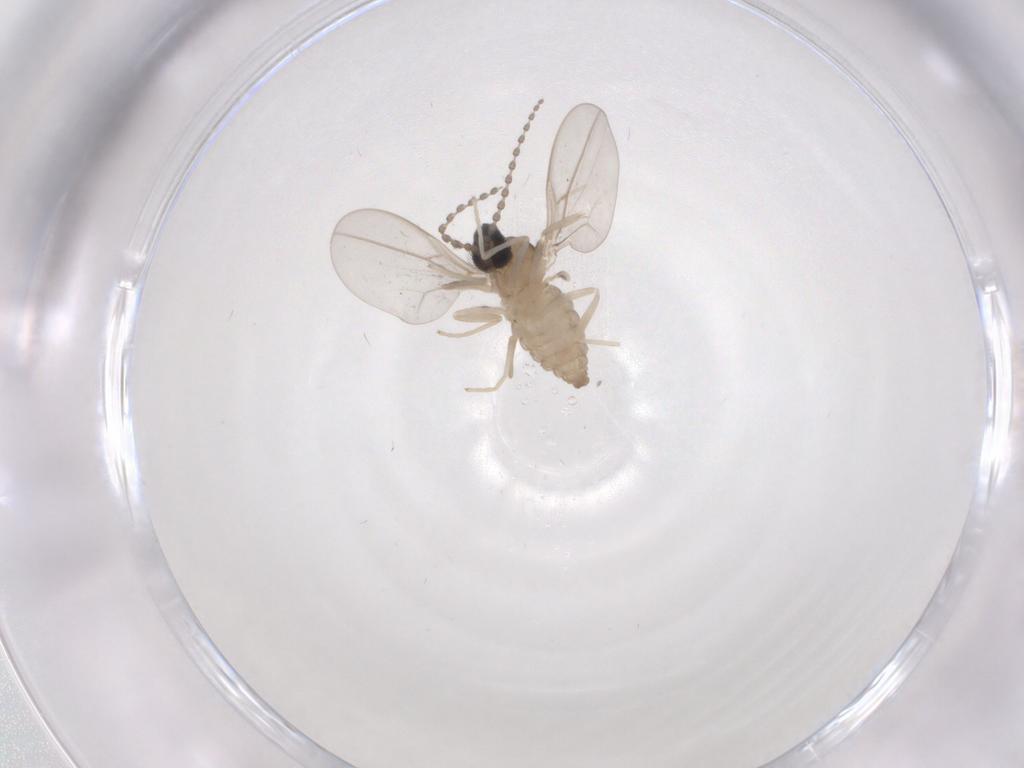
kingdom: Animalia
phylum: Arthropoda
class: Insecta
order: Diptera
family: Cecidomyiidae
